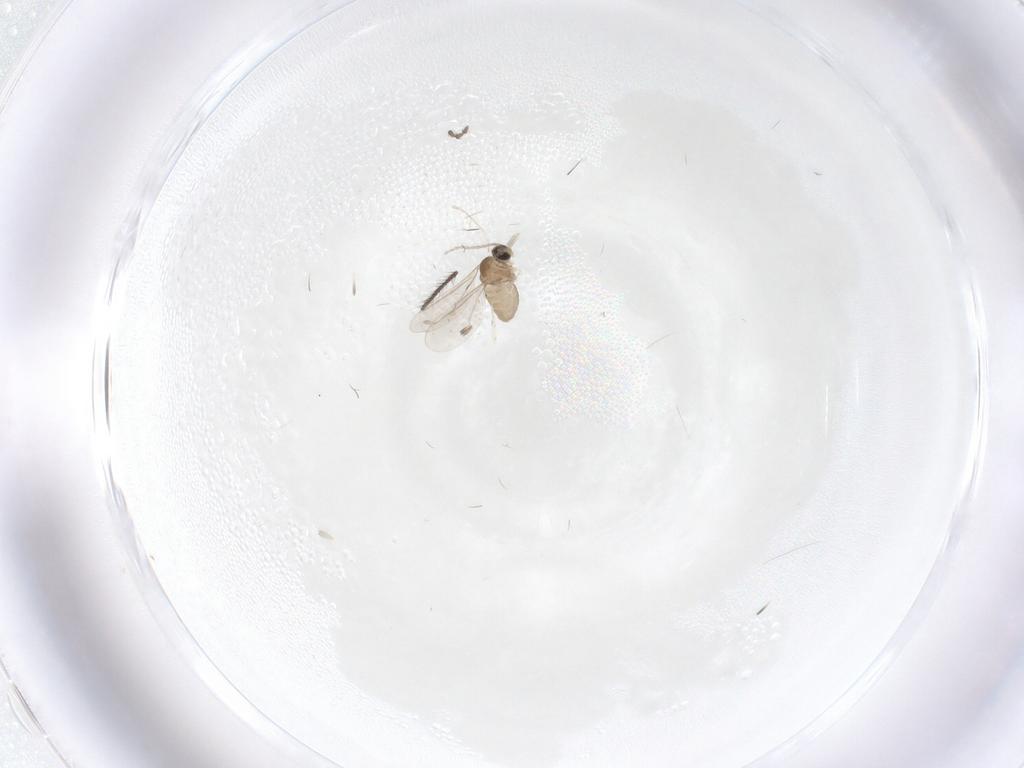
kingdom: Animalia
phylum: Arthropoda
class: Insecta
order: Diptera
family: Cecidomyiidae
